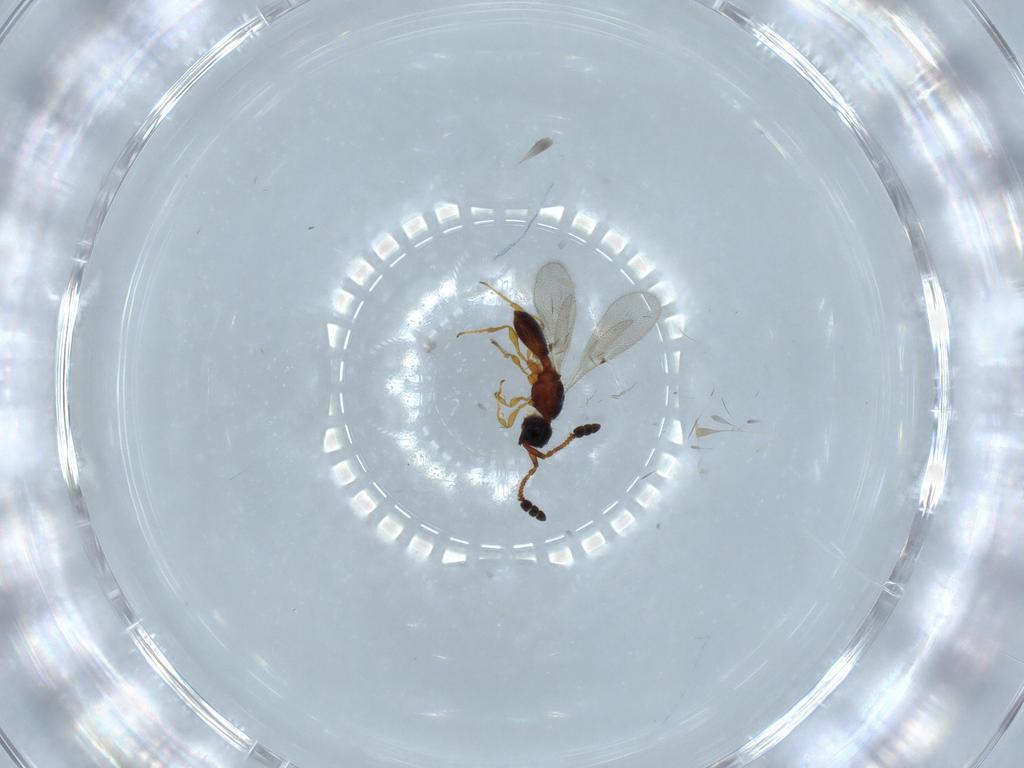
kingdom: Animalia
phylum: Arthropoda
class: Insecta
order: Hymenoptera
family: Diapriidae
